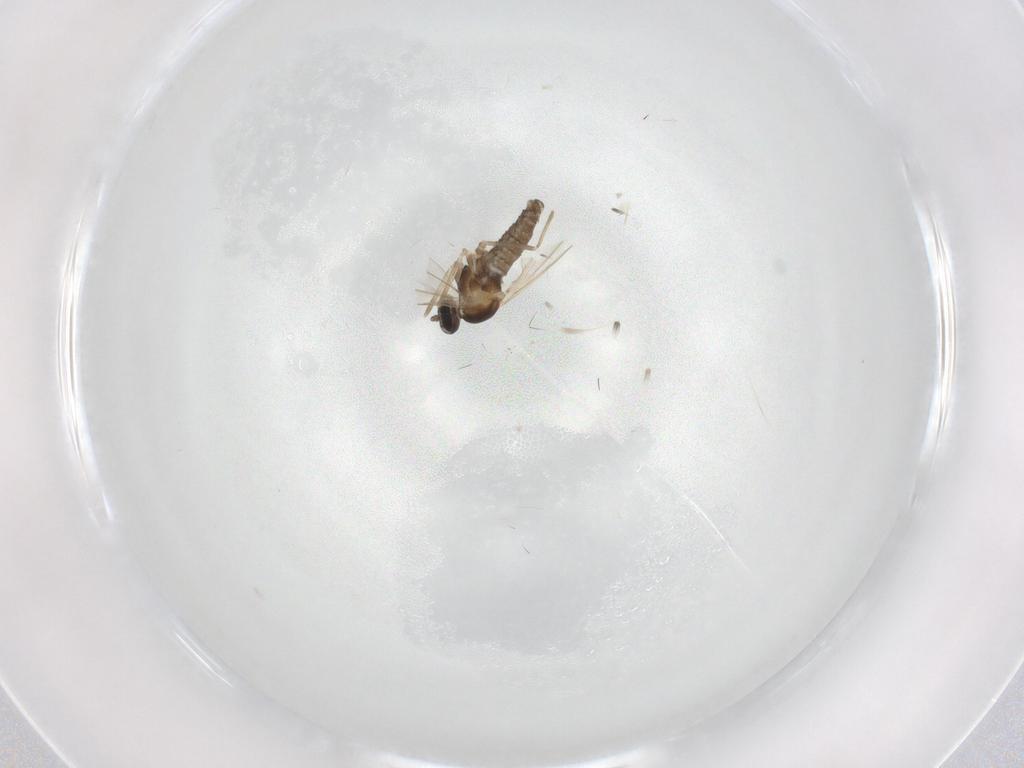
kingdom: Animalia
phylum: Arthropoda
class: Insecta
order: Diptera
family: Cecidomyiidae
